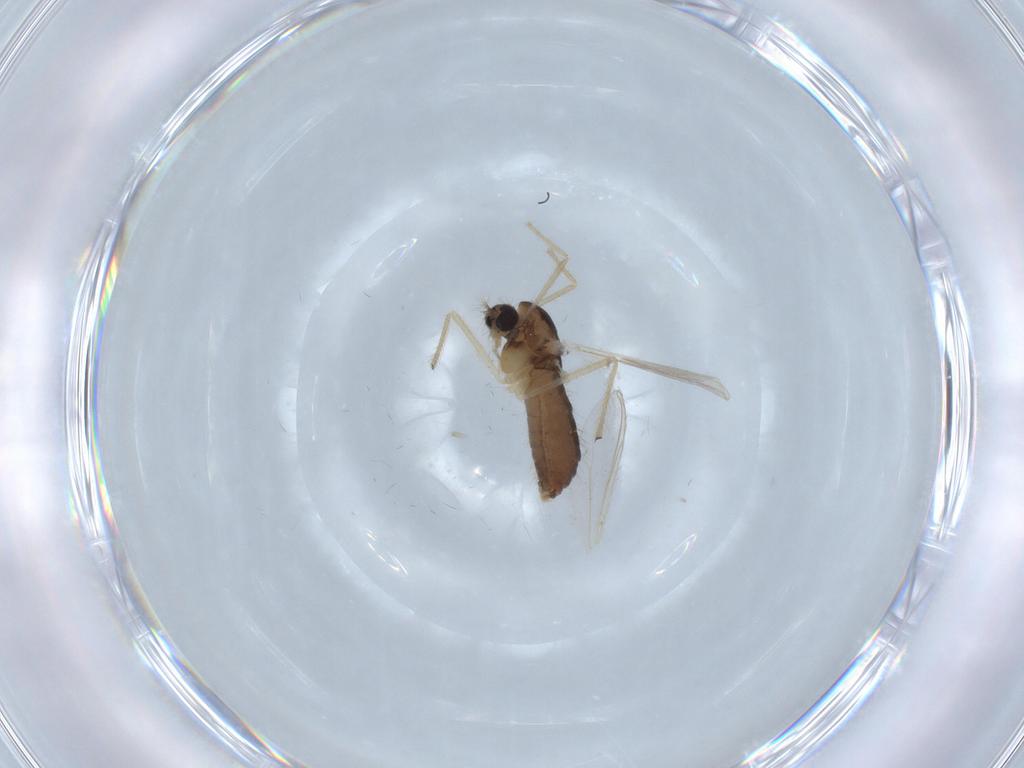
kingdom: Animalia
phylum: Arthropoda
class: Insecta
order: Diptera
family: Chironomidae
